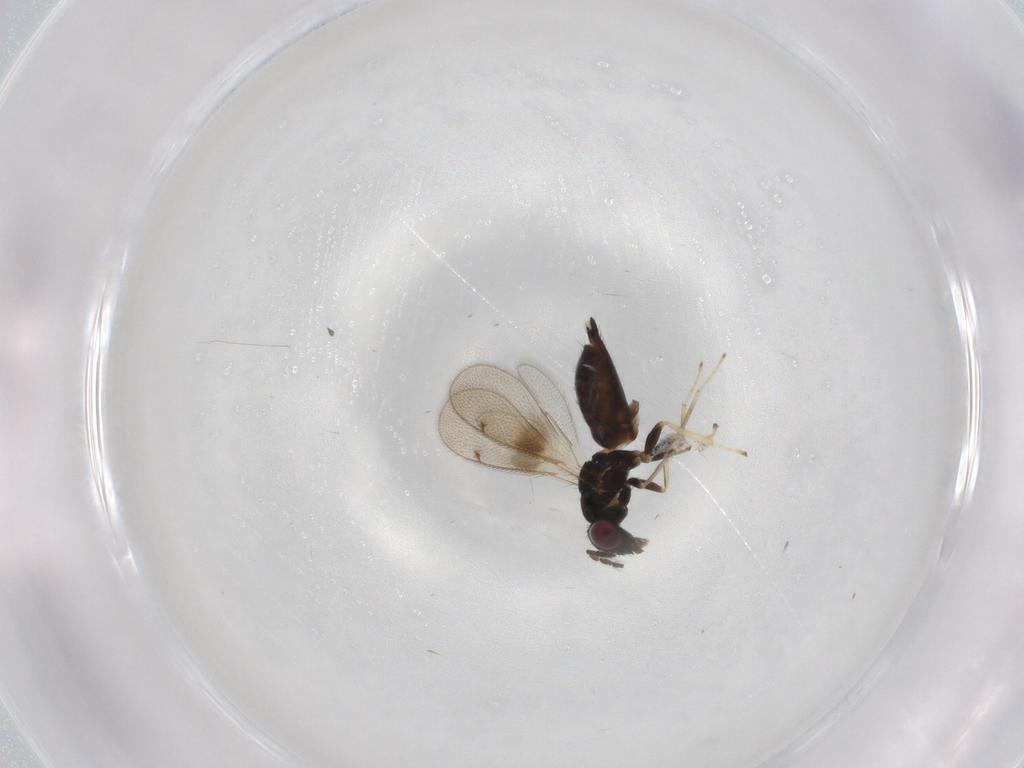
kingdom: Animalia
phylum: Arthropoda
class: Insecta
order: Hymenoptera
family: Eulophidae
